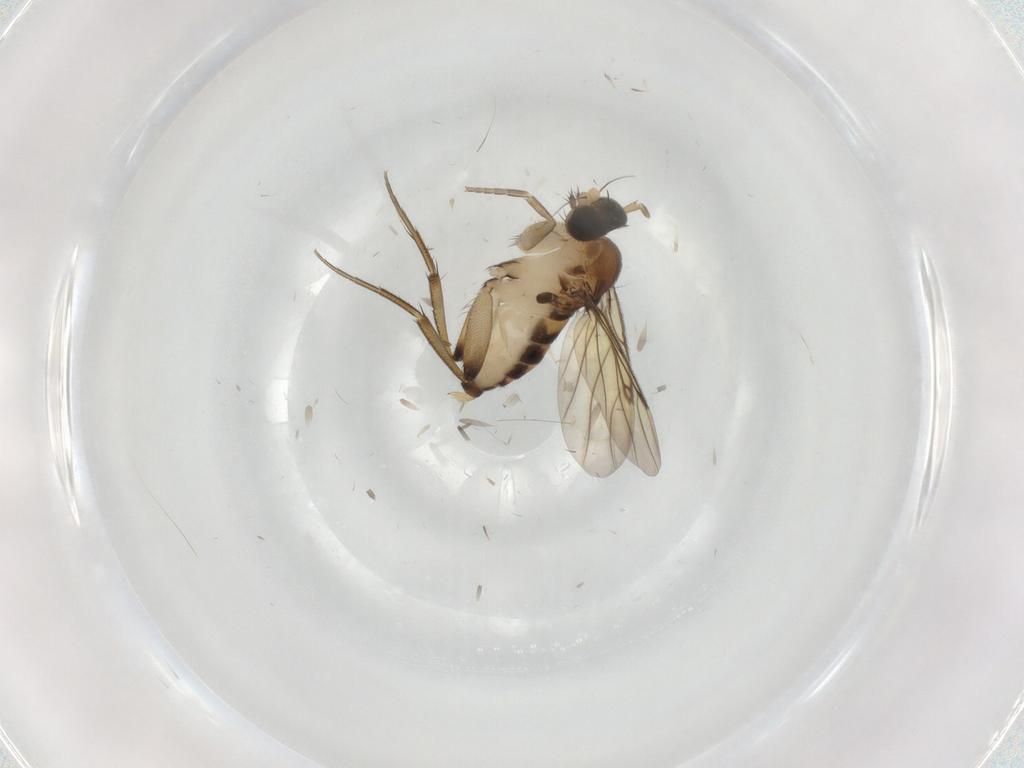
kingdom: Animalia
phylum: Arthropoda
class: Insecta
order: Diptera
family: Phoridae
